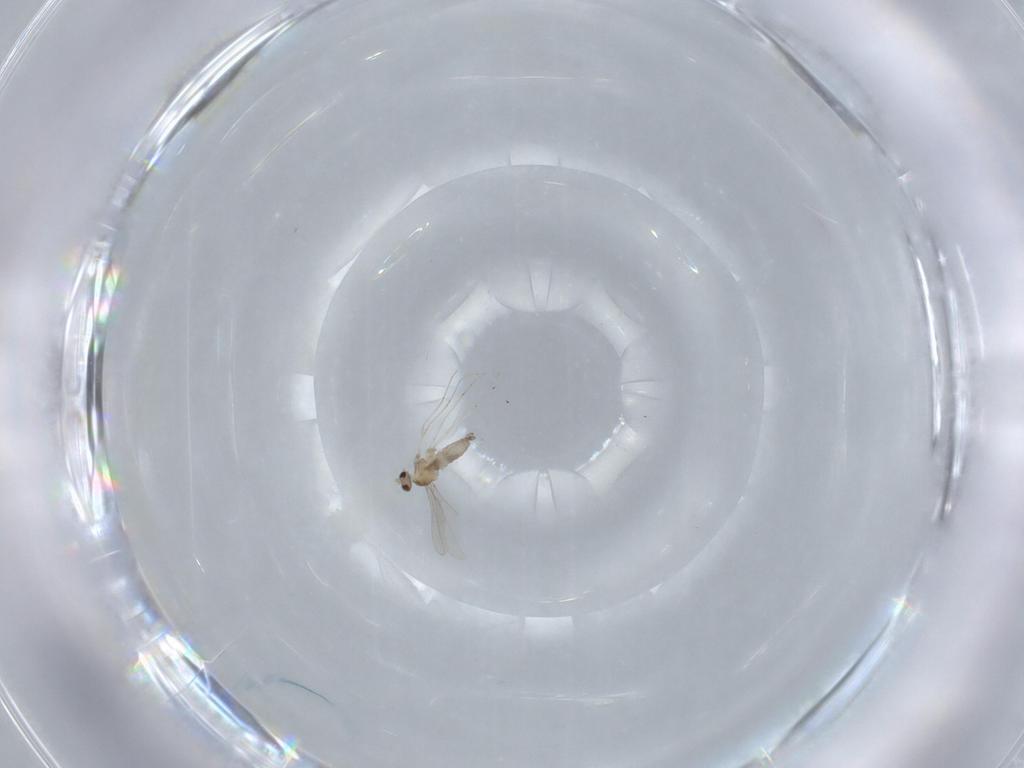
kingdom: Animalia
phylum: Arthropoda
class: Insecta
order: Diptera
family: Cecidomyiidae
